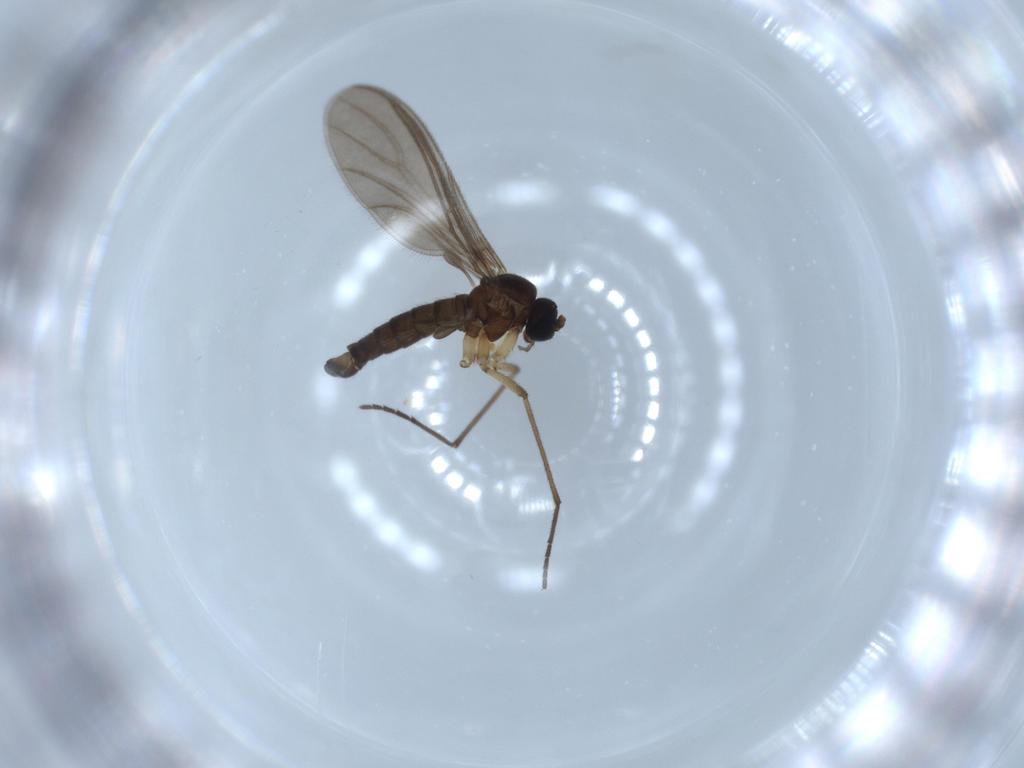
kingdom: Animalia
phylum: Arthropoda
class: Insecta
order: Diptera
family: Sciaridae
